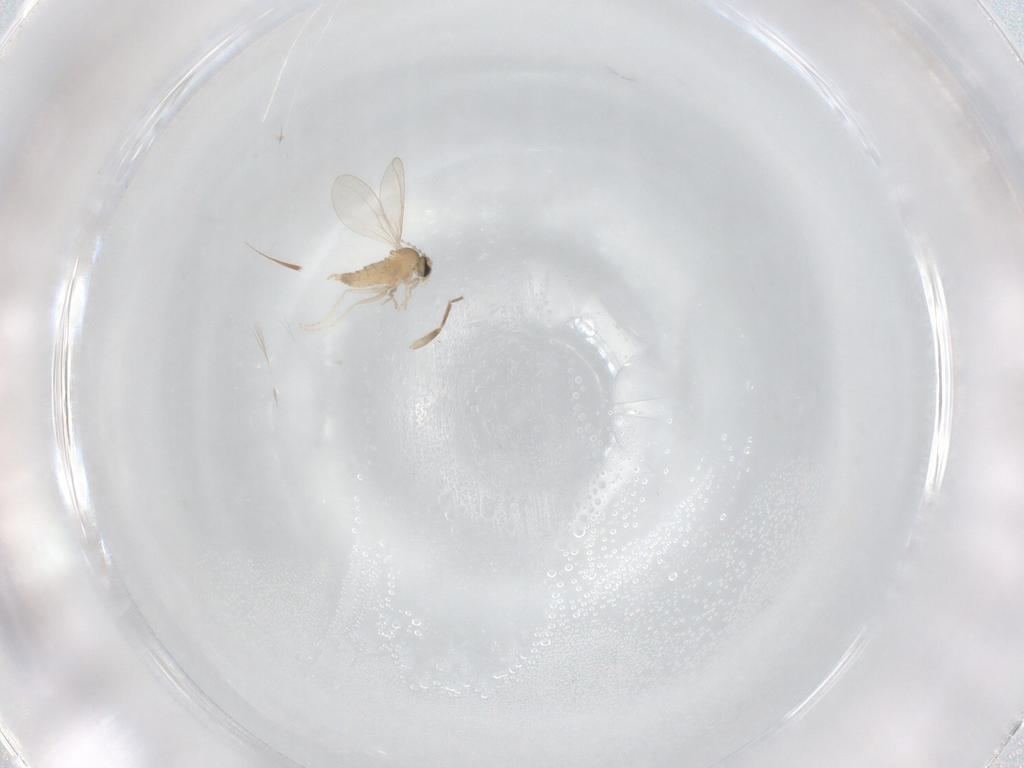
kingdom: Animalia
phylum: Arthropoda
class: Insecta
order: Diptera
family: Cecidomyiidae
